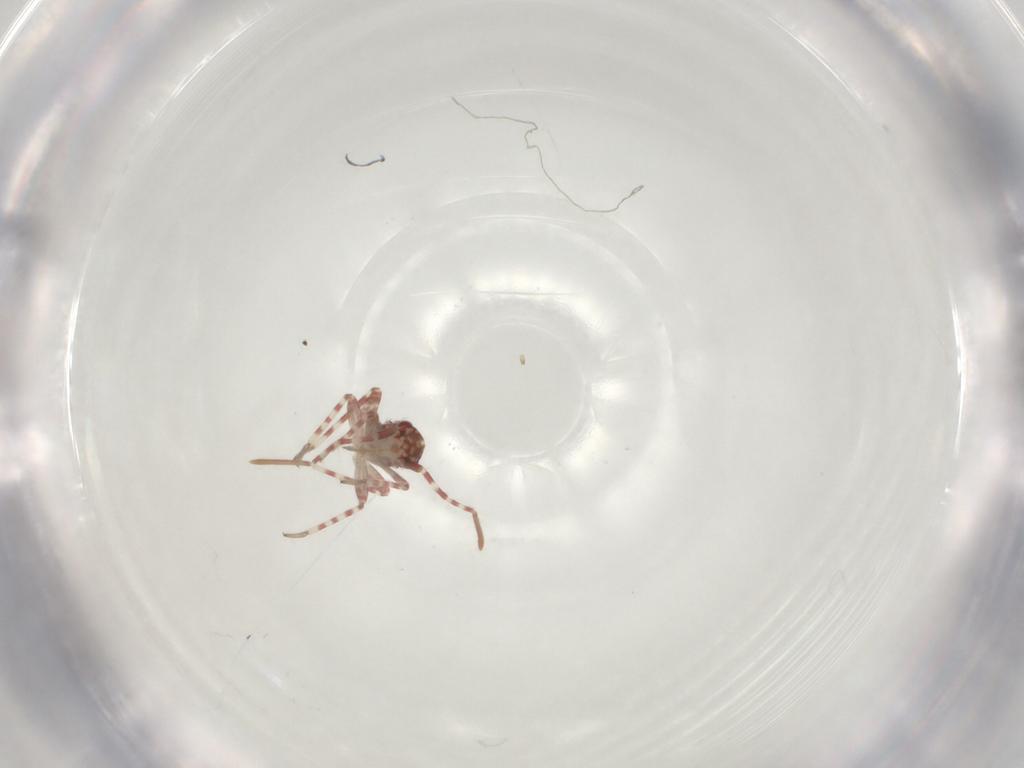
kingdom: Animalia
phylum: Arthropoda
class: Insecta
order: Hemiptera
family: Miridae
